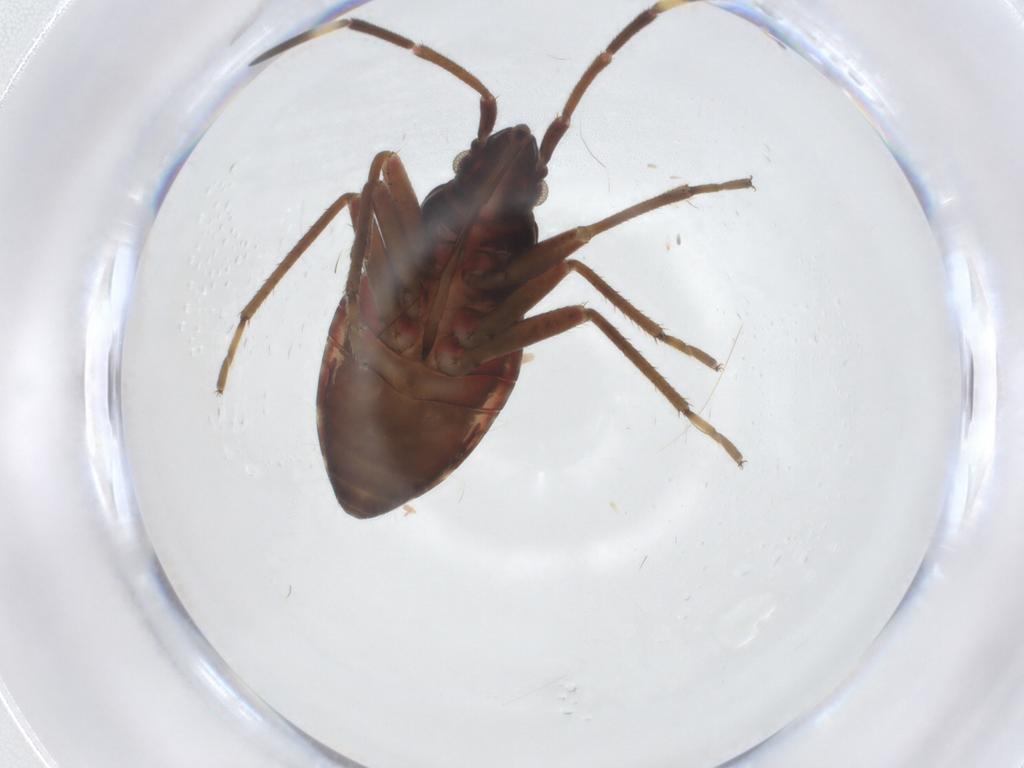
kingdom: Animalia
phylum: Arthropoda
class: Insecta
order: Hemiptera
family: Rhyparochromidae
